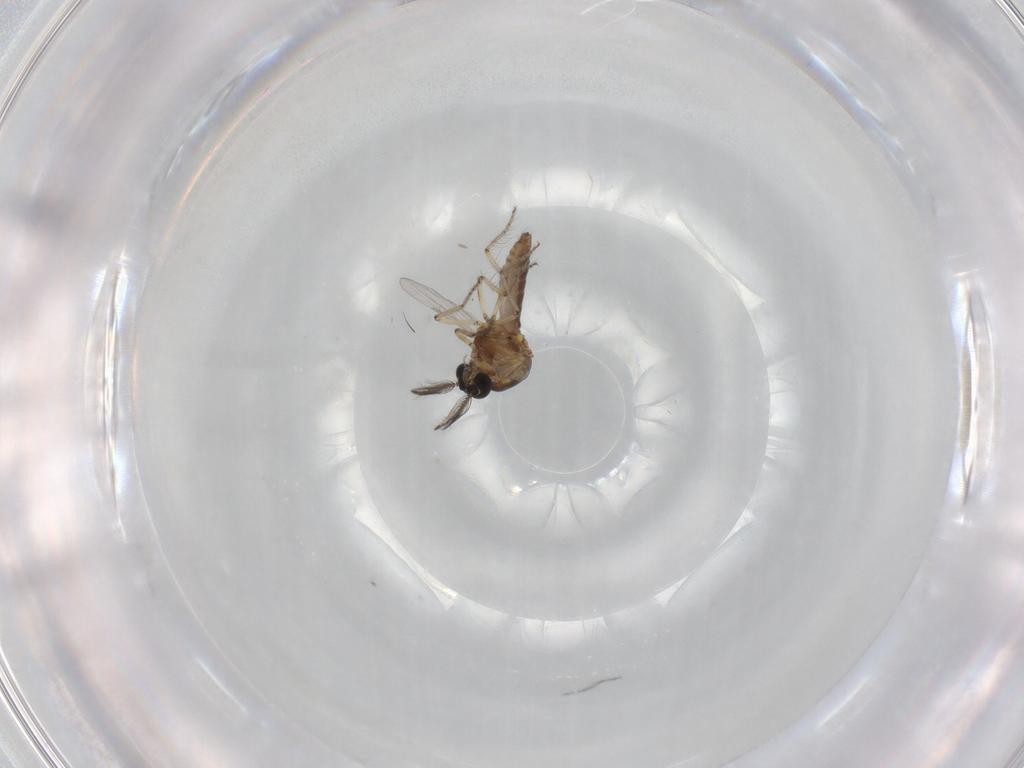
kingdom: Animalia
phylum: Arthropoda
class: Insecta
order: Diptera
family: Ceratopogonidae
